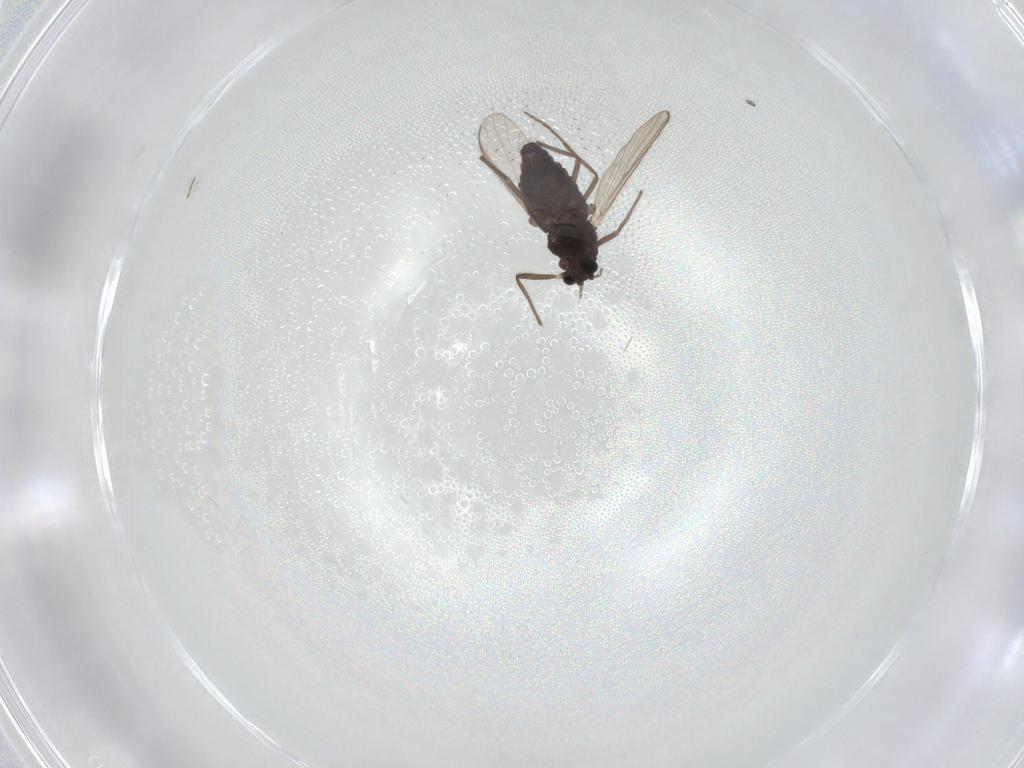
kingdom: Animalia
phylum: Arthropoda
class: Insecta
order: Diptera
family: Chironomidae
